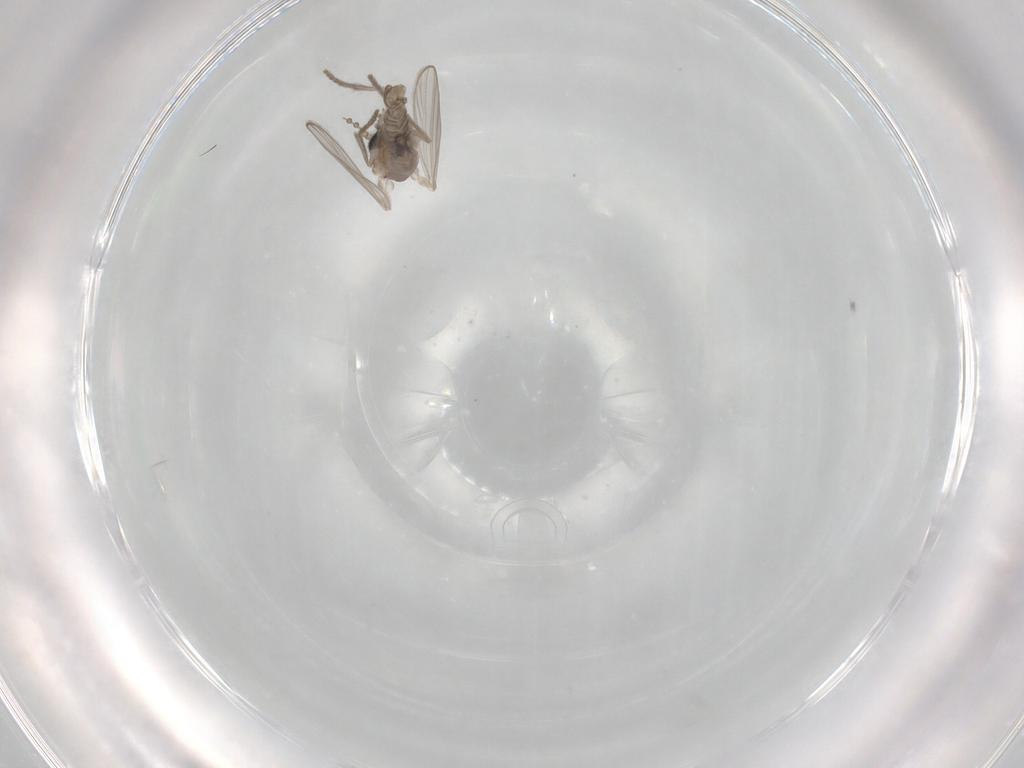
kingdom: Animalia
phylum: Arthropoda
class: Insecta
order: Diptera
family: Psychodidae
